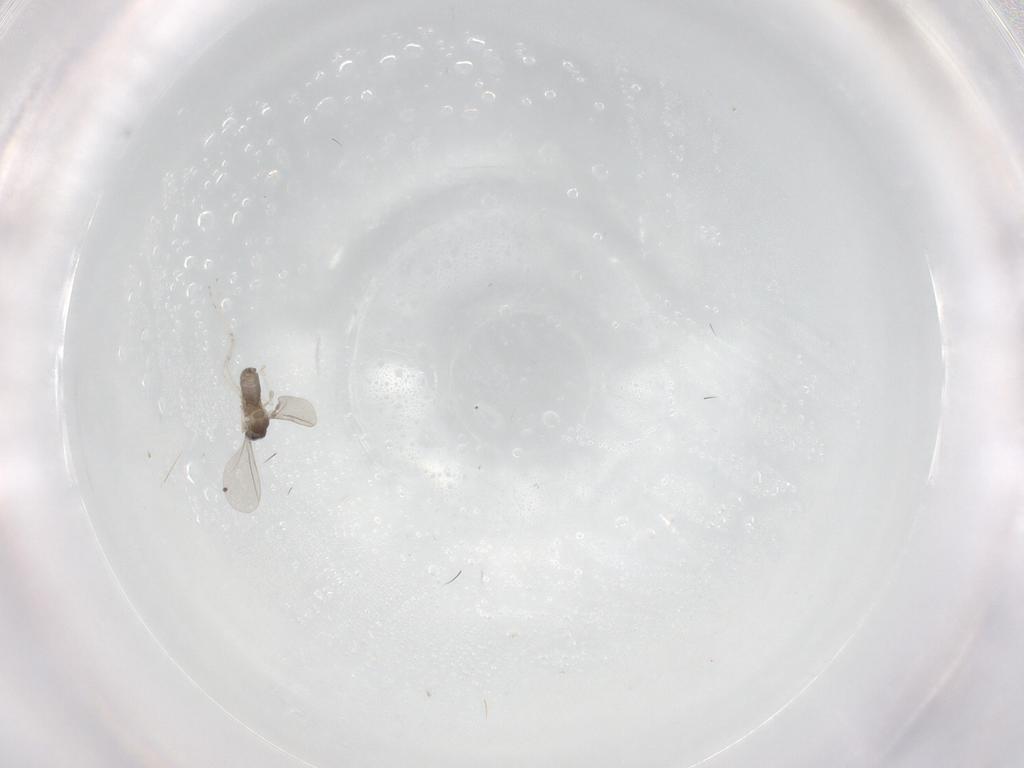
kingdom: Animalia
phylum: Arthropoda
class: Insecta
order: Diptera
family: Cecidomyiidae
